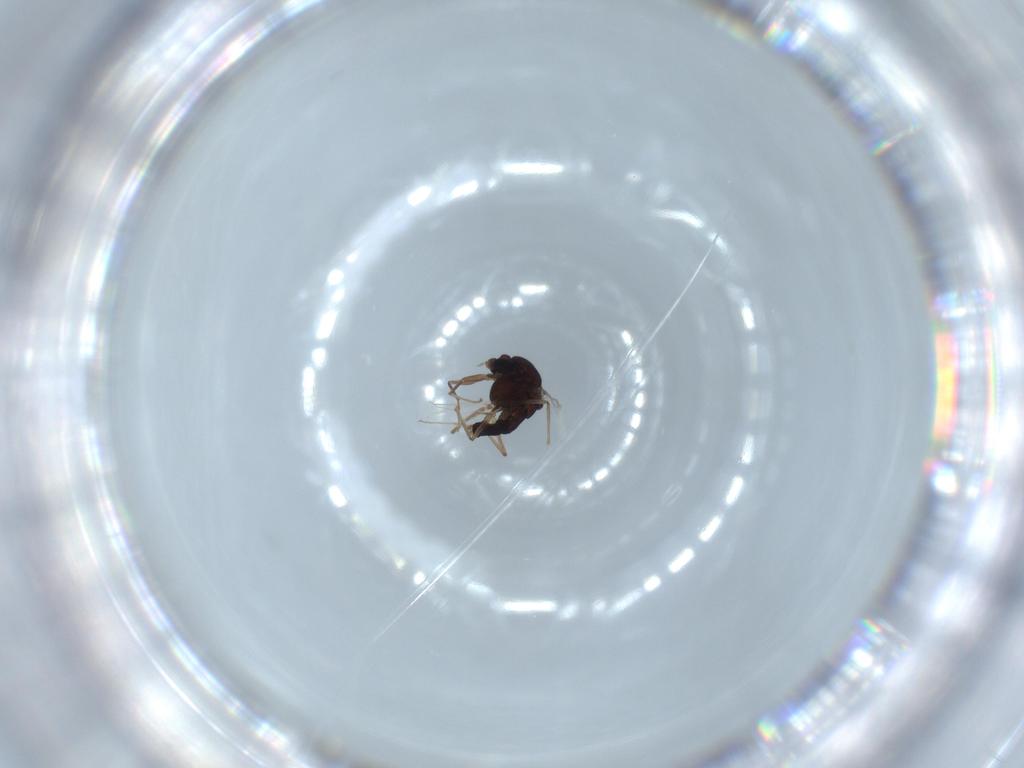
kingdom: Animalia
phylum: Arthropoda
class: Insecta
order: Diptera
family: Chironomidae
